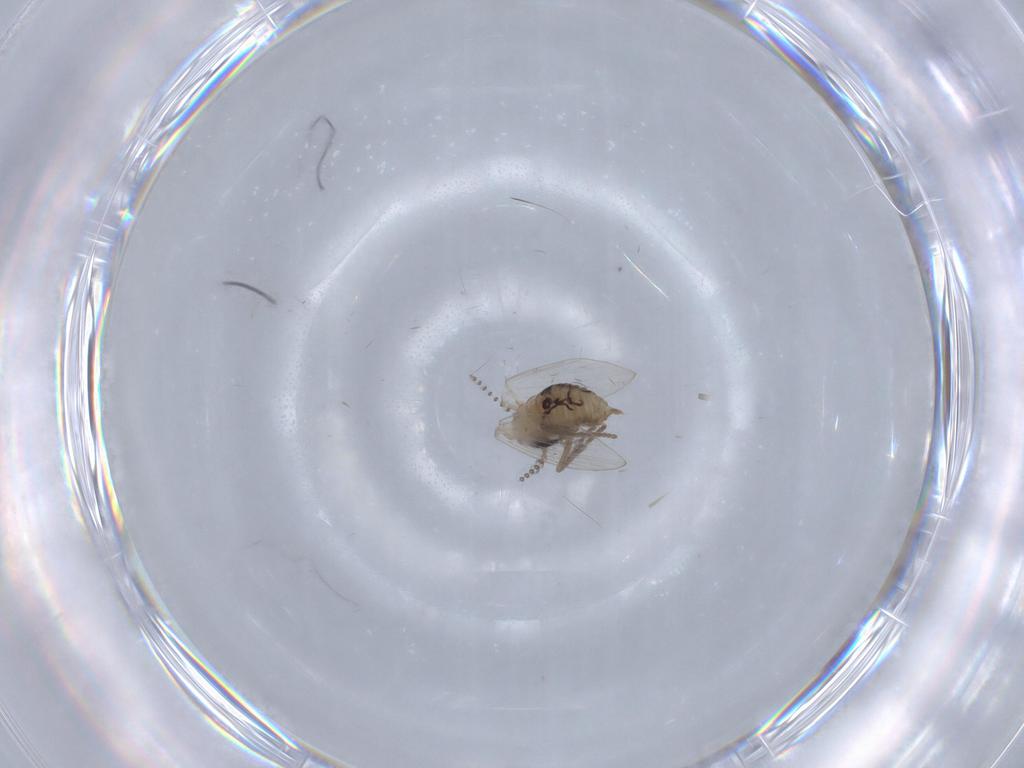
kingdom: Animalia
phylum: Arthropoda
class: Insecta
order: Diptera
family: Psychodidae
